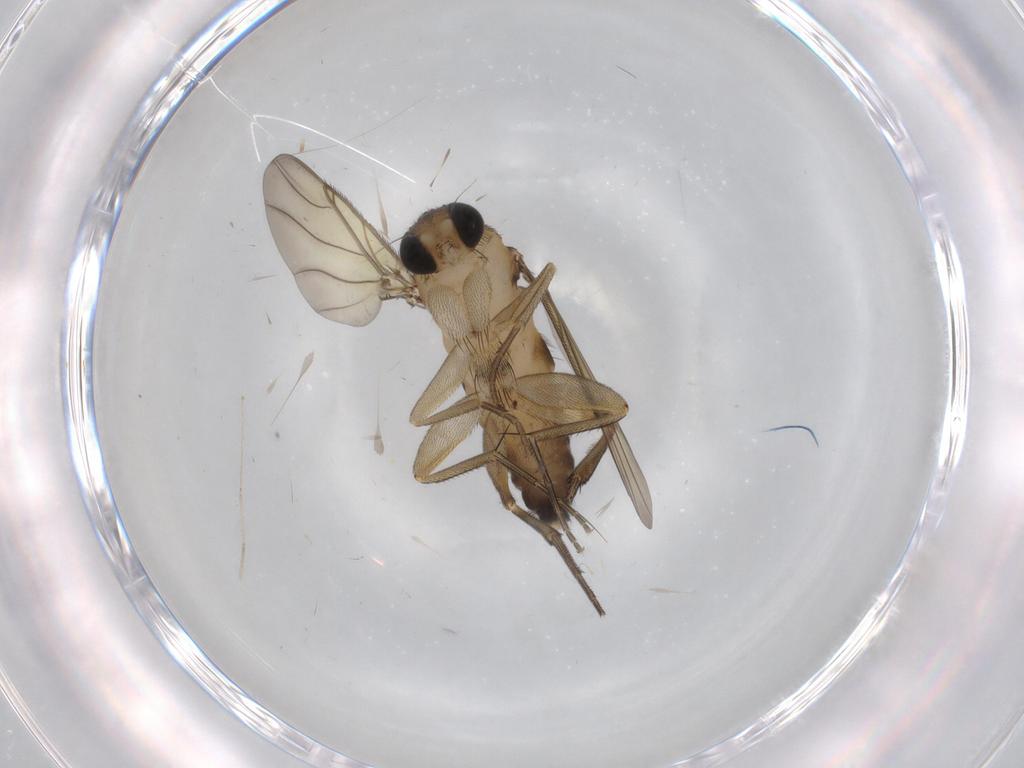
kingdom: Animalia
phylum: Arthropoda
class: Insecta
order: Diptera
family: Phoridae
